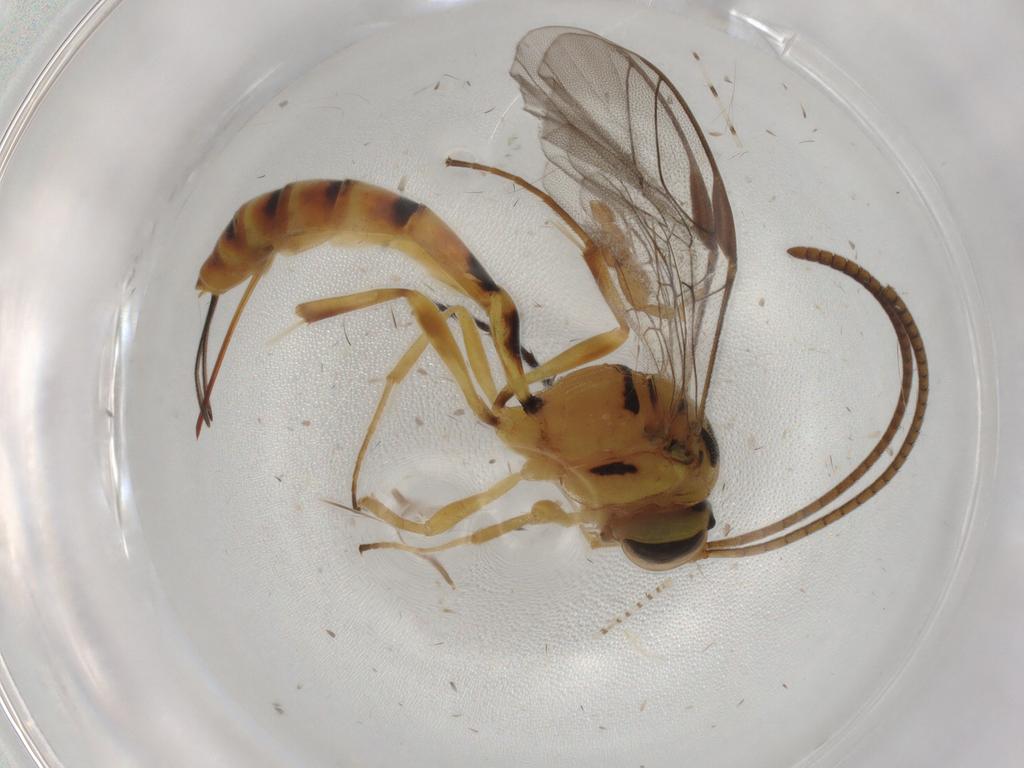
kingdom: Animalia
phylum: Arthropoda
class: Insecta
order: Hymenoptera
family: Ichneumonidae
